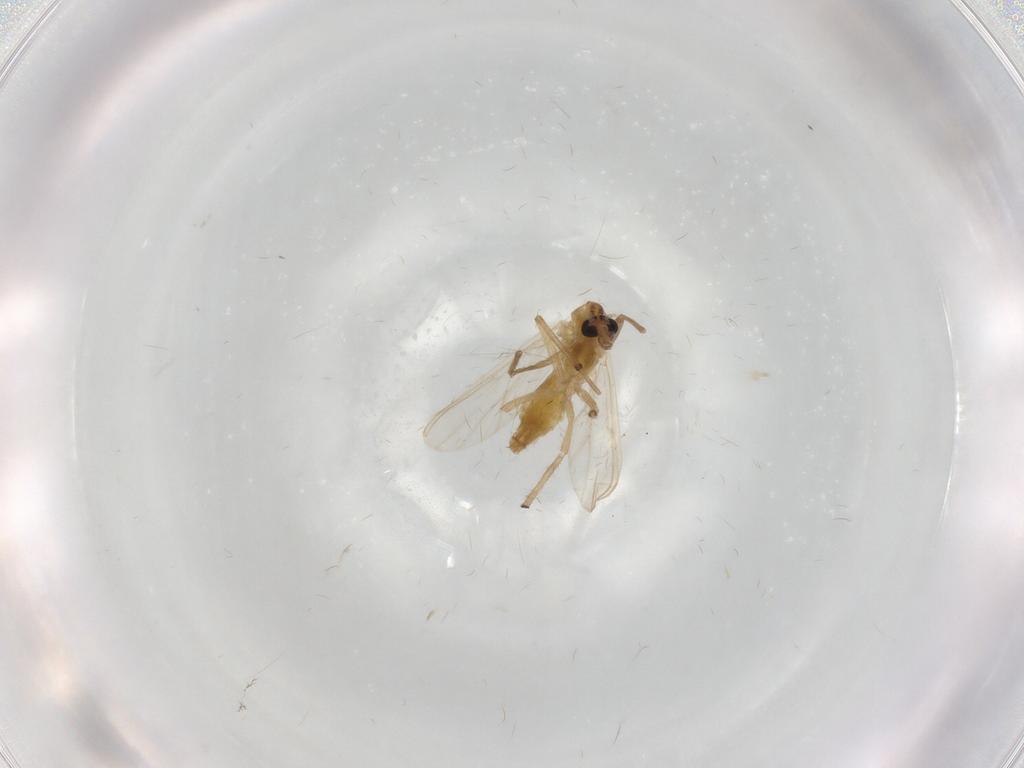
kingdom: Animalia
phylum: Arthropoda
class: Insecta
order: Diptera
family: Chironomidae
